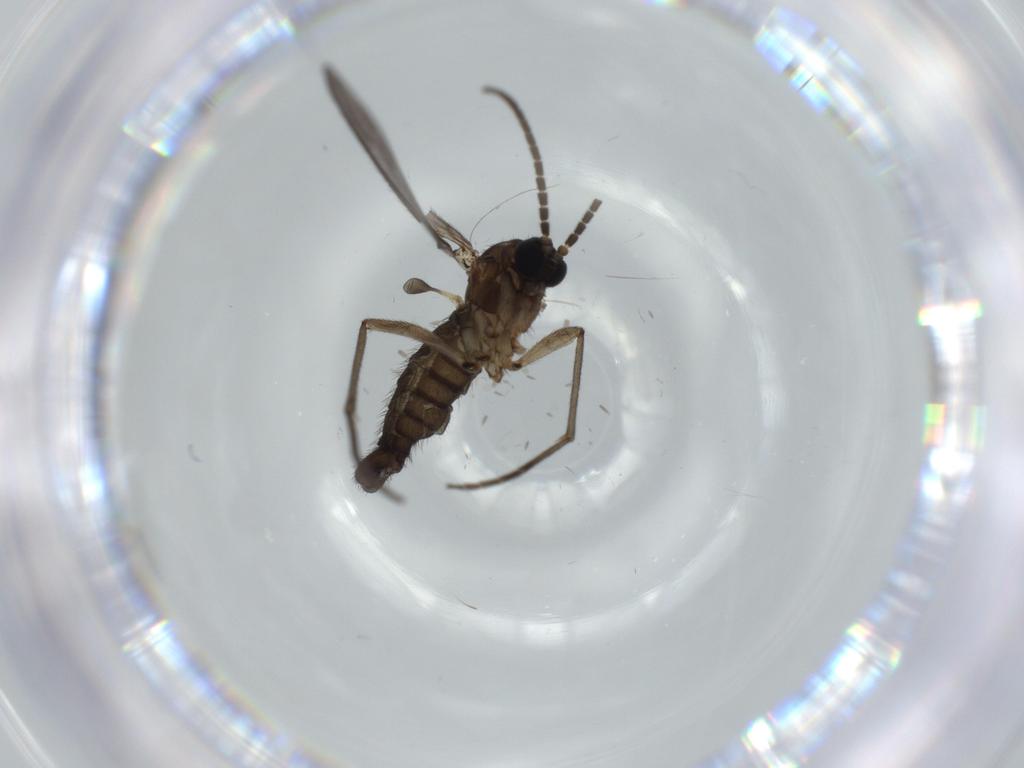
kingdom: Animalia
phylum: Arthropoda
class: Insecta
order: Diptera
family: Sciaridae
